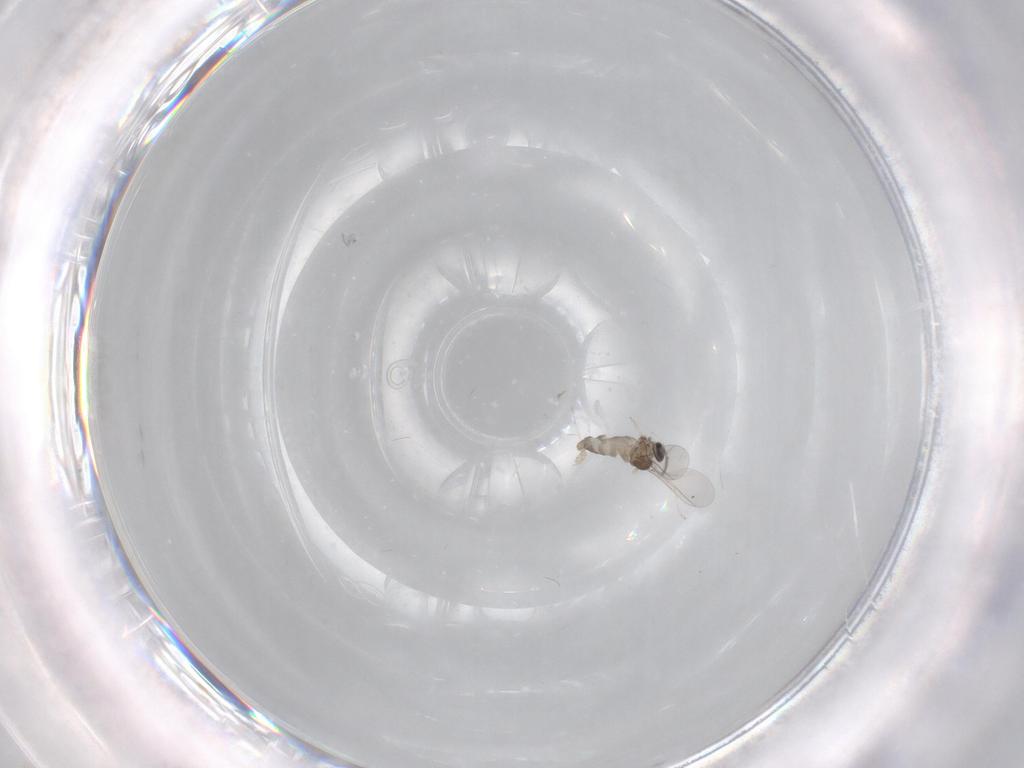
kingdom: Animalia
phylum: Arthropoda
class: Insecta
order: Diptera
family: Cecidomyiidae
